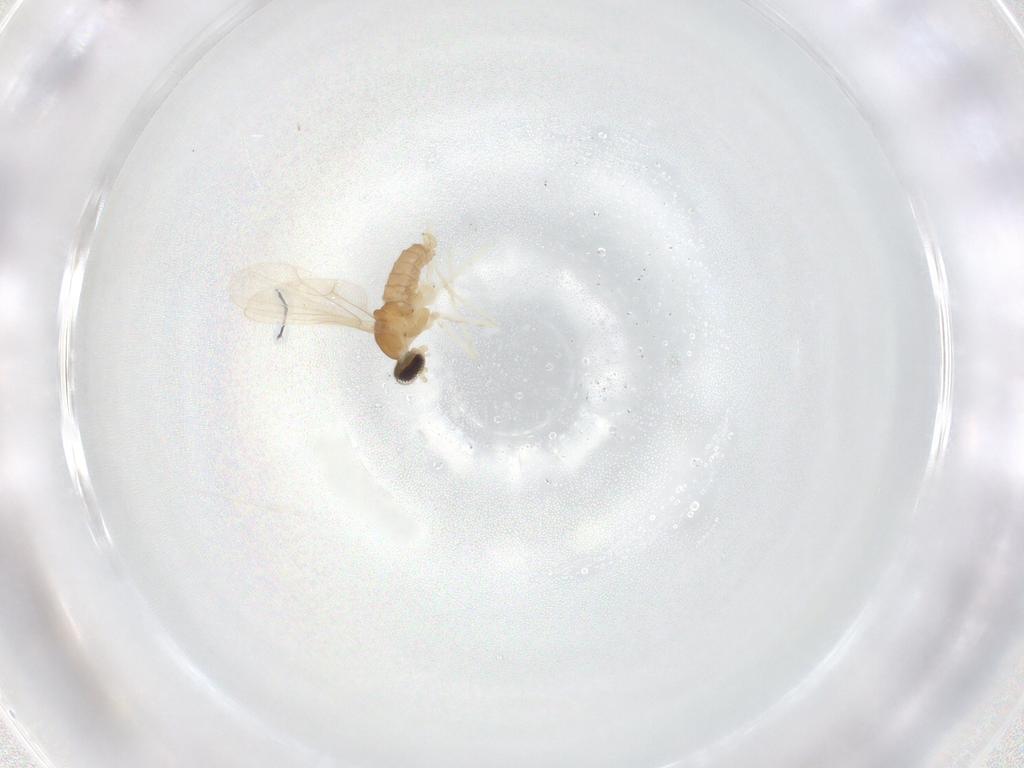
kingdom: Animalia
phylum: Arthropoda
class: Insecta
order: Diptera
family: Cecidomyiidae
